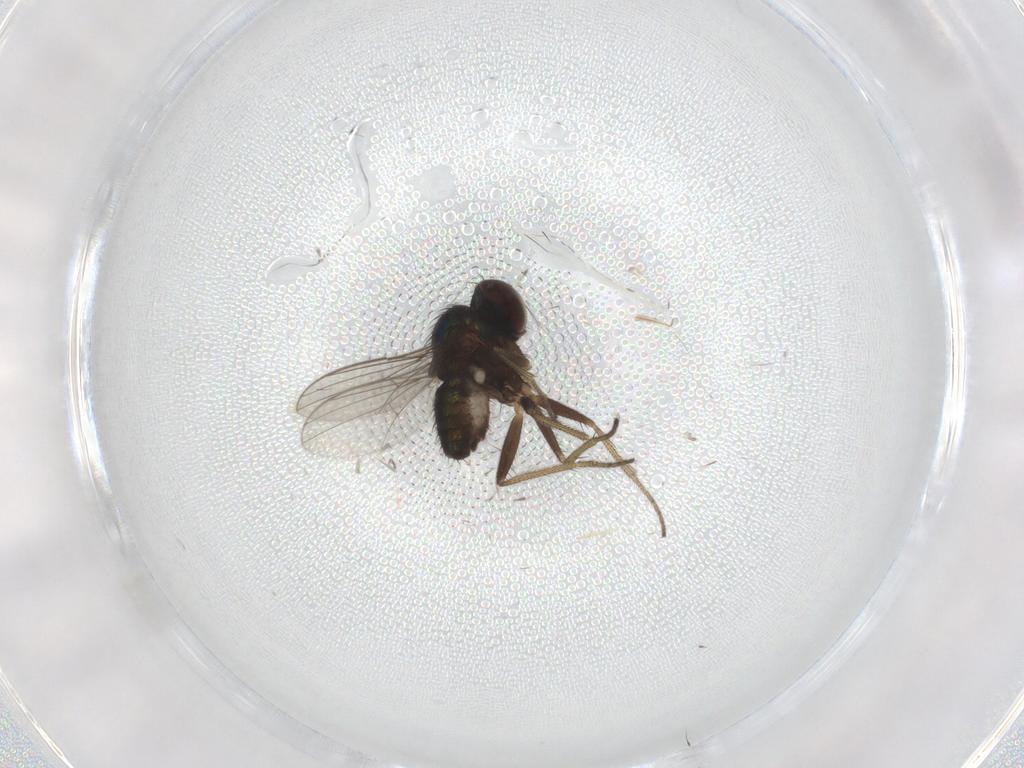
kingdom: Animalia
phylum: Arthropoda
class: Insecta
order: Diptera
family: Dolichopodidae
